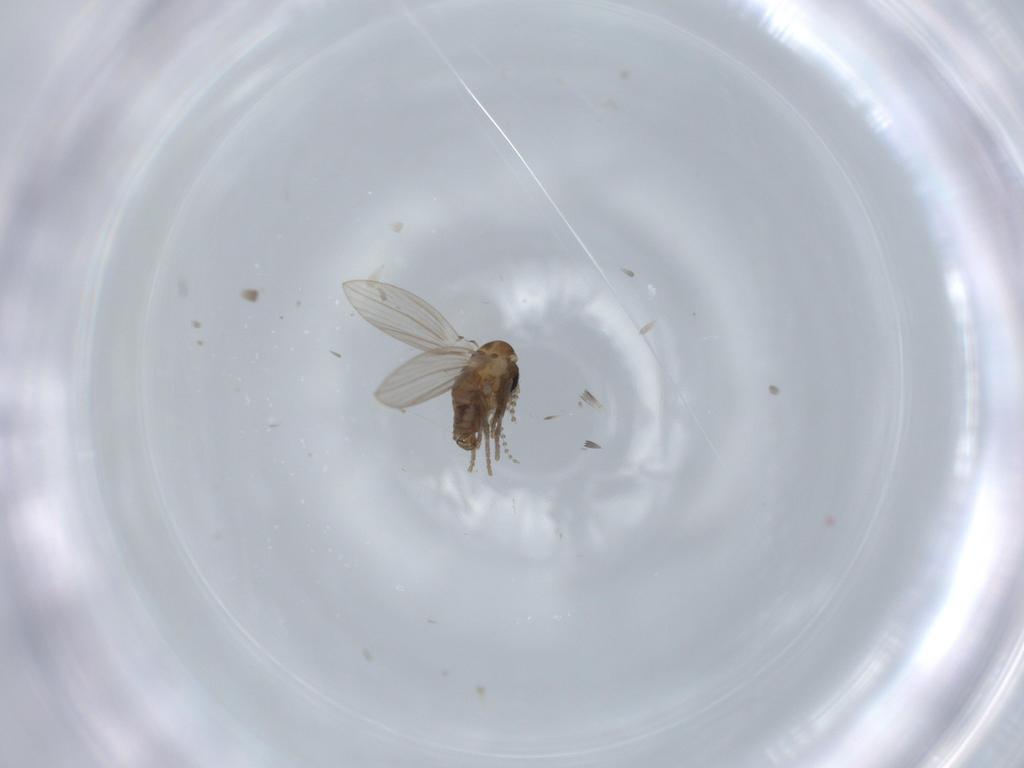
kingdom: Animalia
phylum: Arthropoda
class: Insecta
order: Diptera
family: Psychodidae
